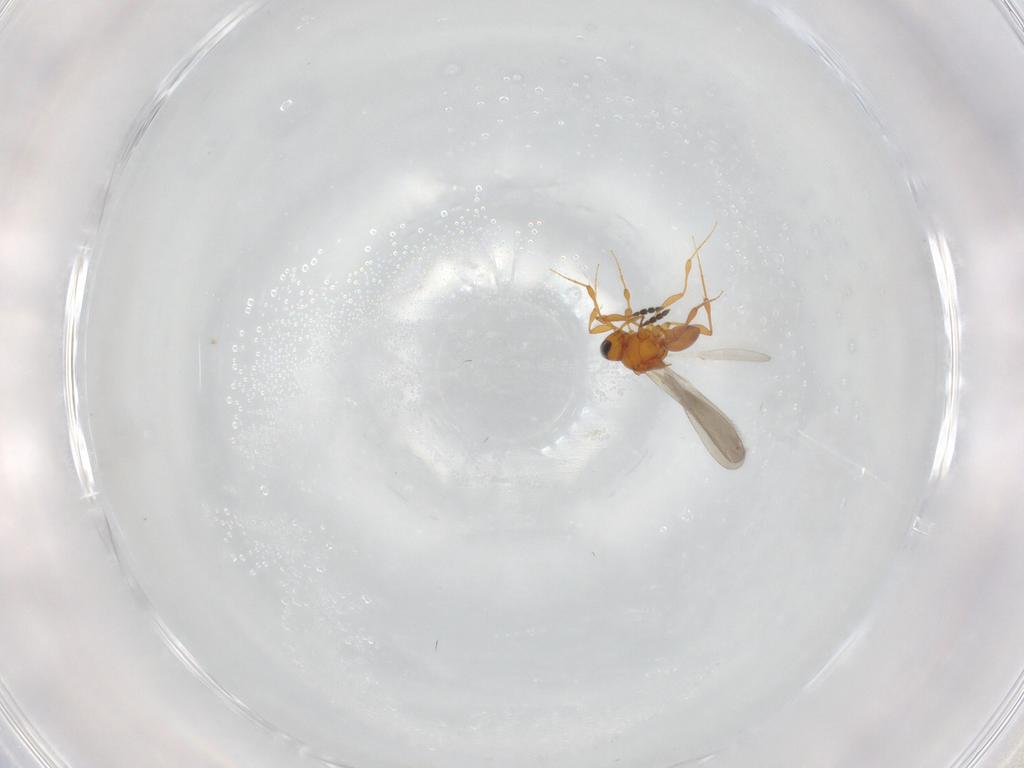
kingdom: Animalia
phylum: Arthropoda
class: Insecta
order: Hymenoptera
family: Platygastridae
